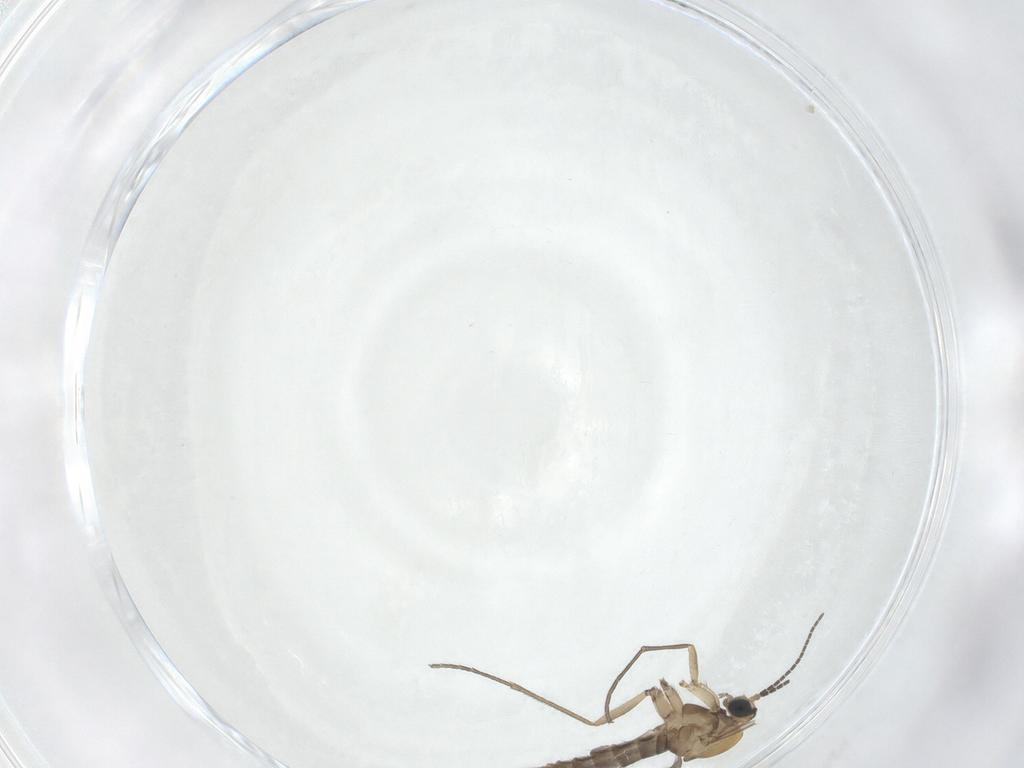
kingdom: Animalia
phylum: Arthropoda
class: Insecta
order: Diptera
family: Sciaridae
